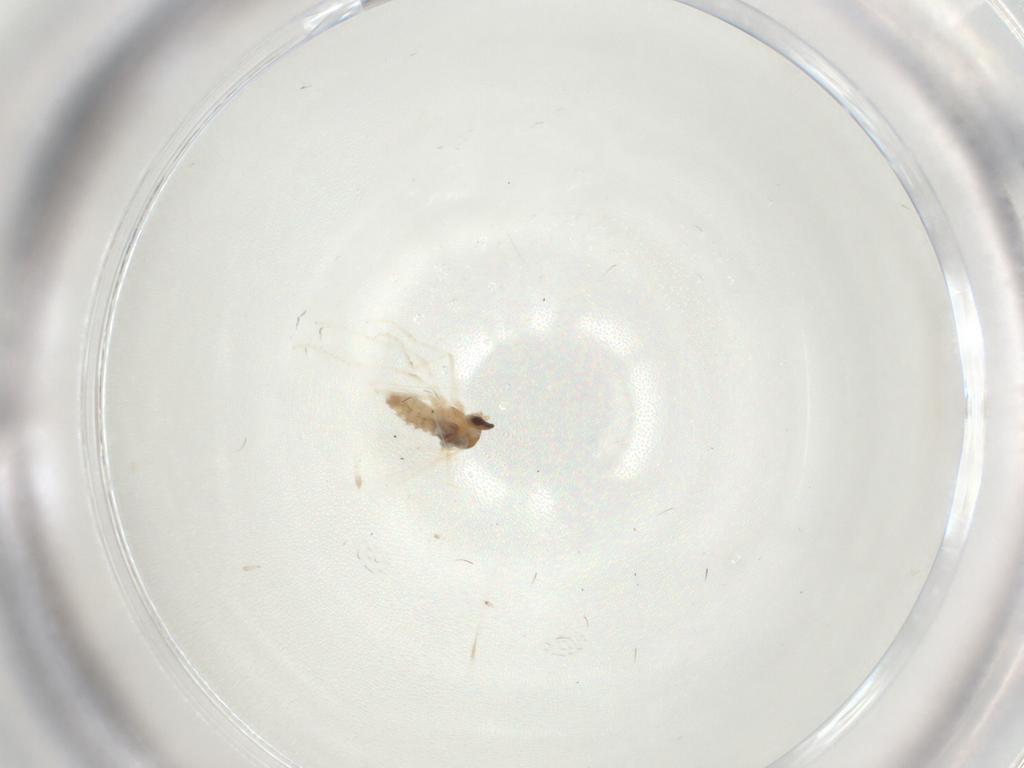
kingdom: Animalia
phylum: Arthropoda
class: Insecta
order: Diptera
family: Cecidomyiidae
